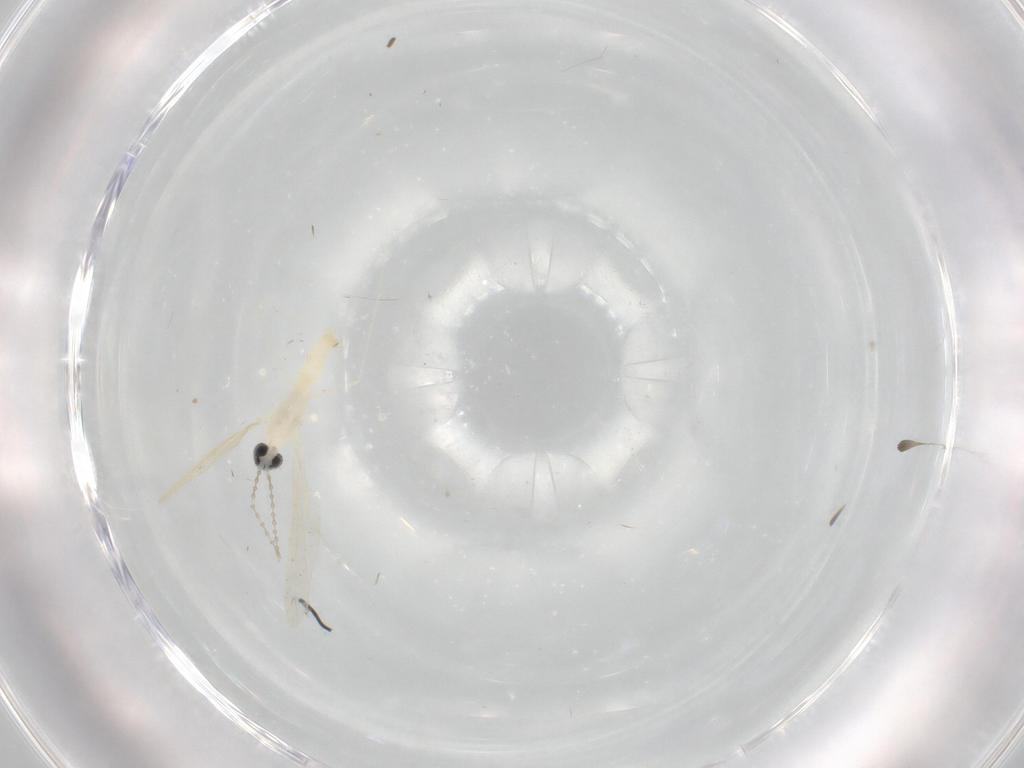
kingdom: Animalia
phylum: Arthropoda
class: Insecta
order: Diptera
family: Cecidomyiidae
